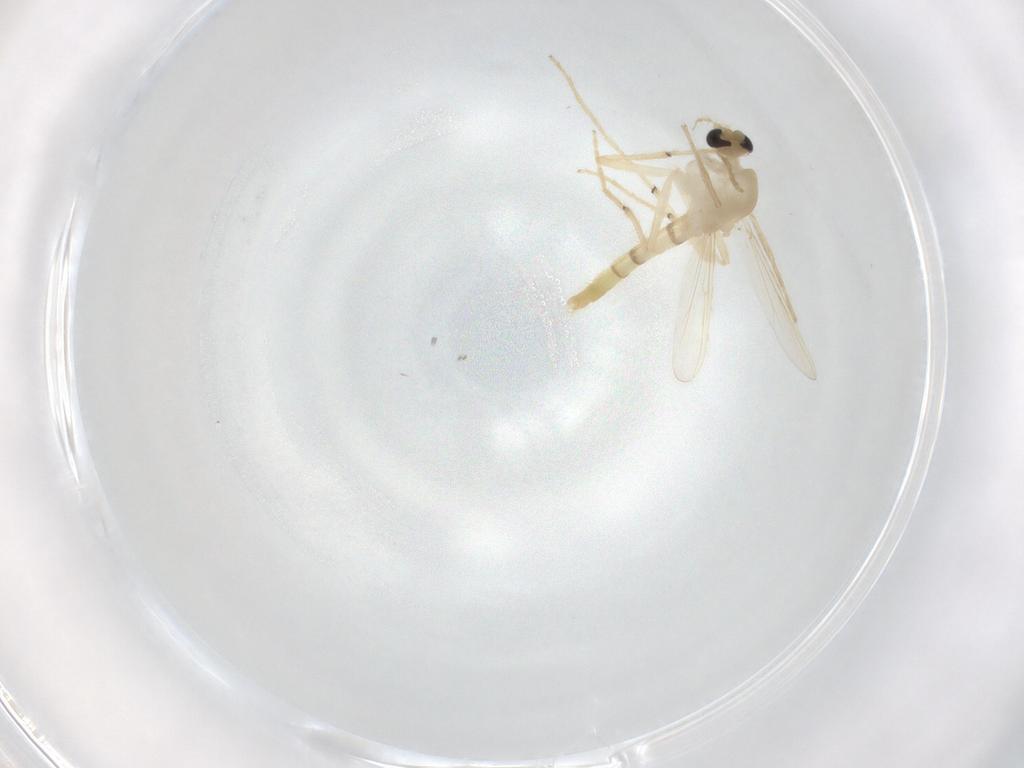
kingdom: Animalia
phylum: Arthropoda
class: Insecta
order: Diptera
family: Chironomidae
